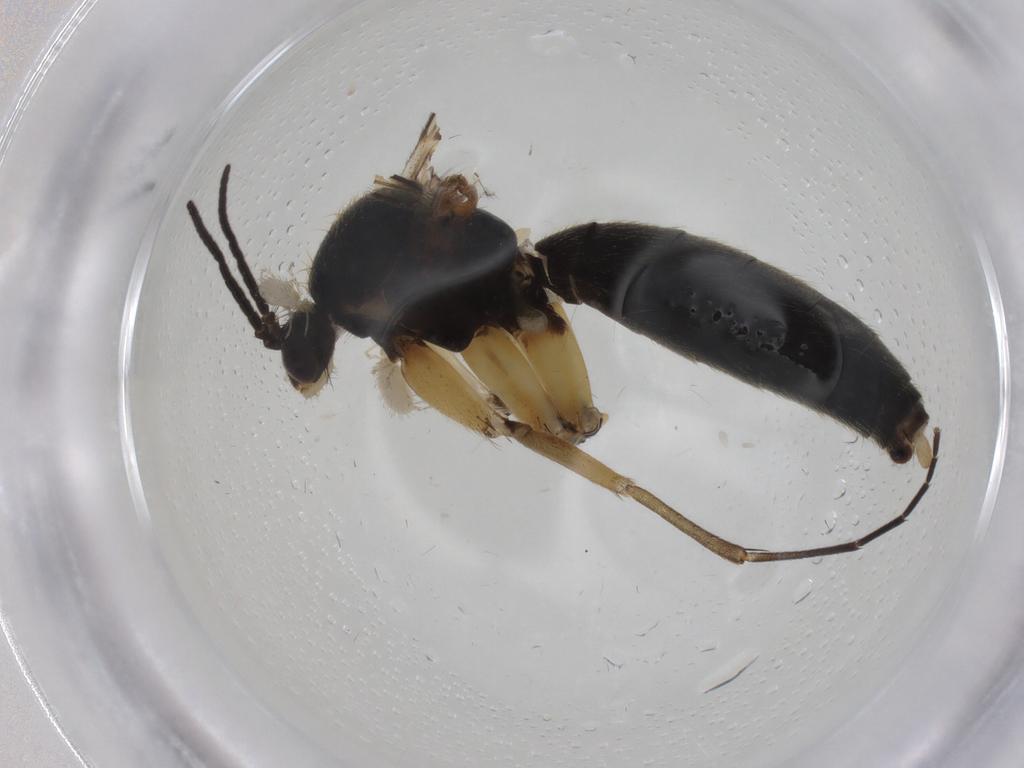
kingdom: Animalia
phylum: Arthropoda
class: Insecta
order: Diptera
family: Mycetophilidae
